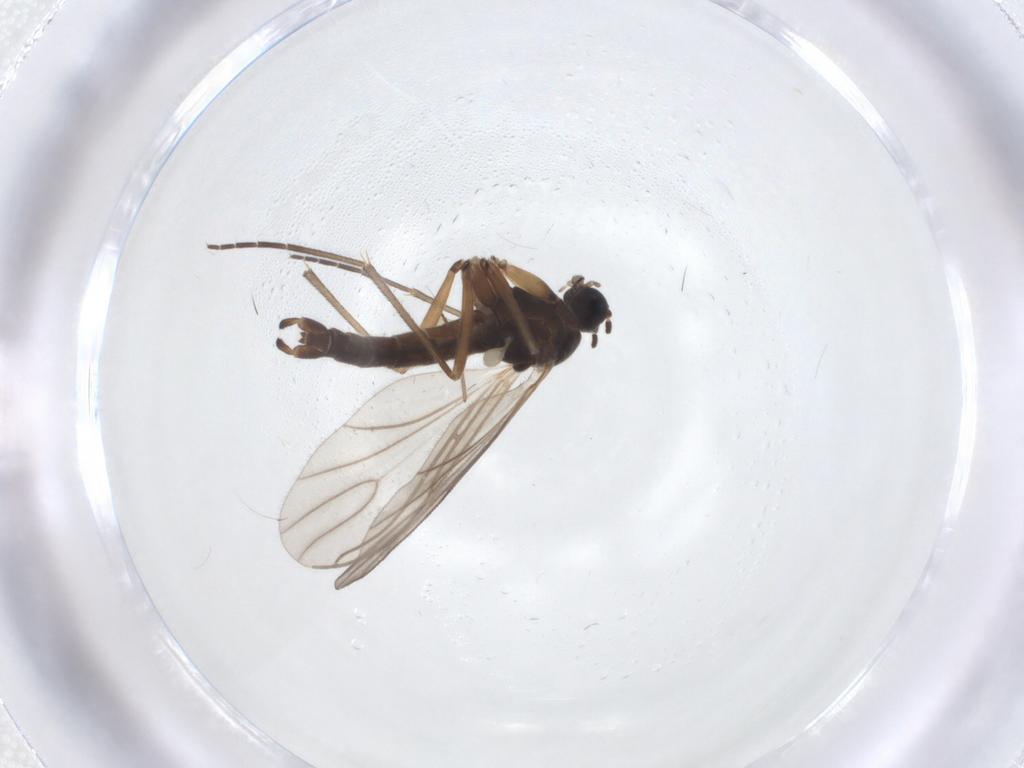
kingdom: Animalia
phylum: Arthropoda
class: Insecta
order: Diptera
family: Sciaridae
